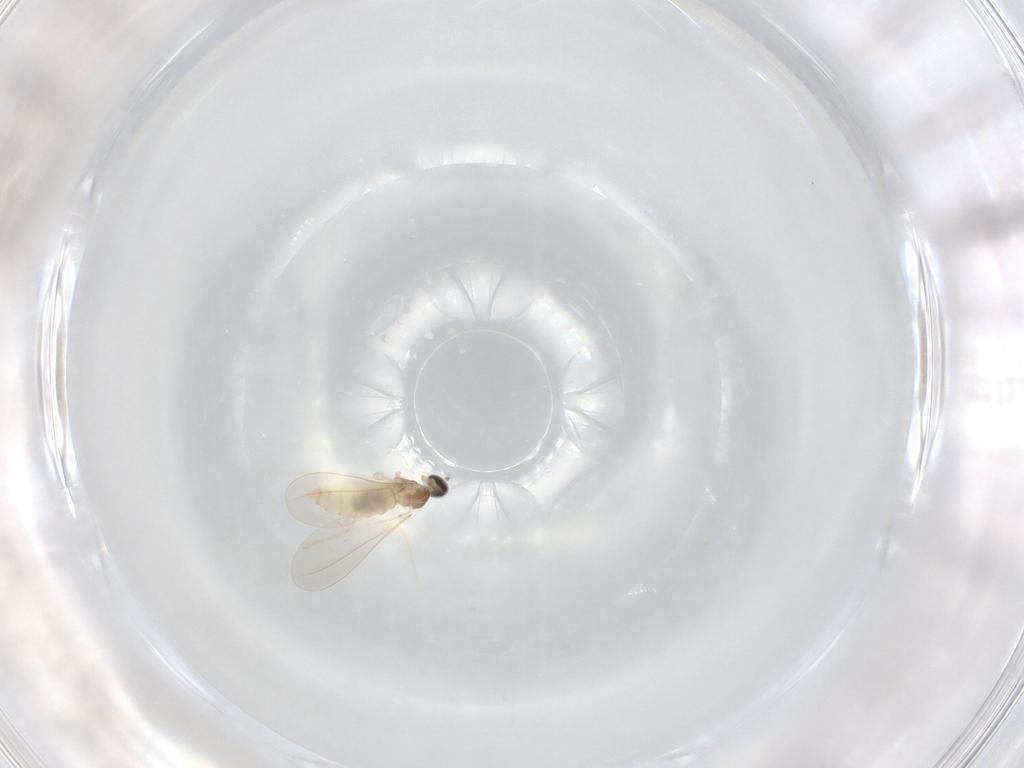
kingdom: Animalia
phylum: Arthropoda
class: Insecta
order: Diptera
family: Cecidomyiidae
